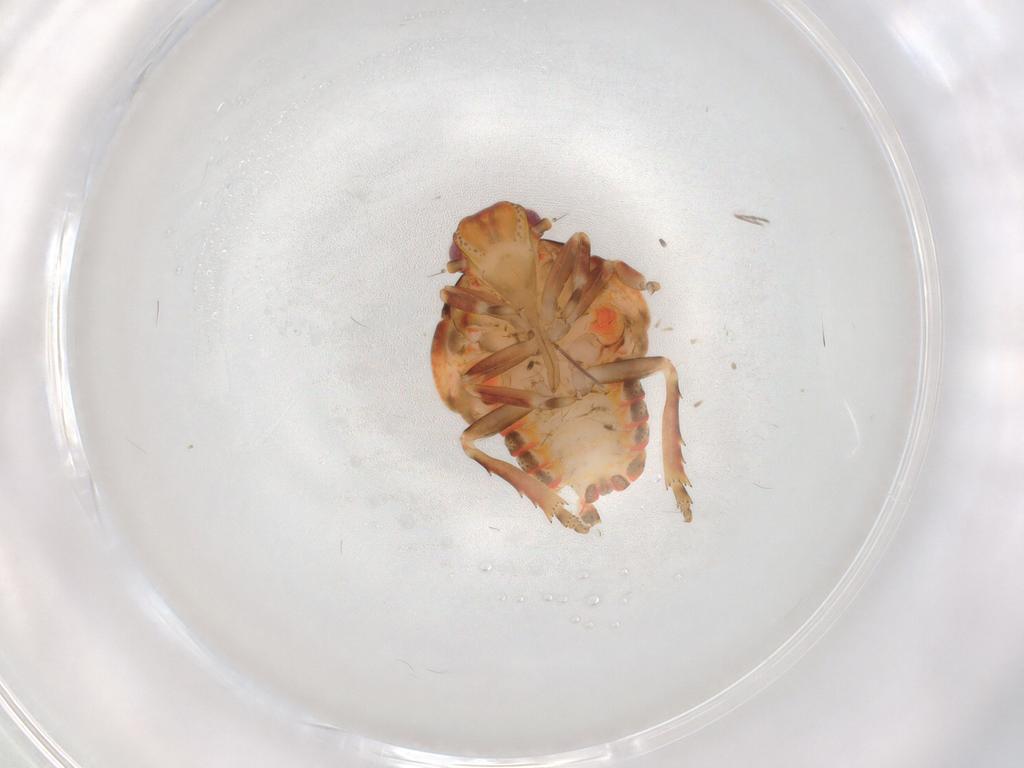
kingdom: Animalia
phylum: Arthropoda
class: Insecta
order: Hemiptera
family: Flatidae
